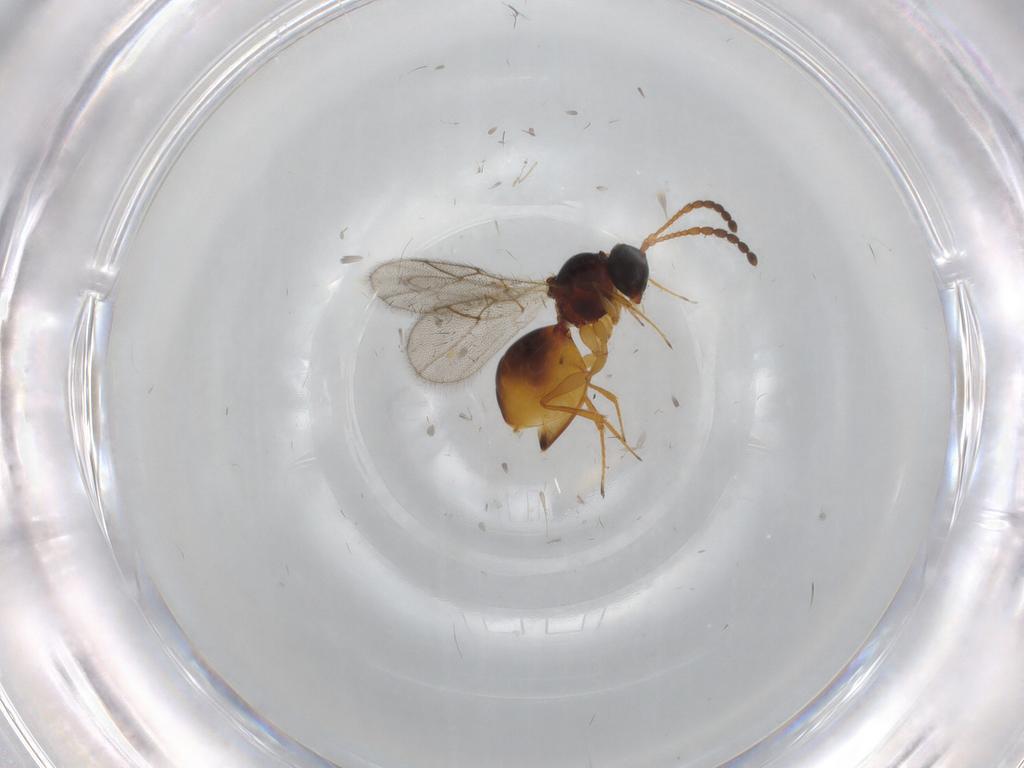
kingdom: Animalia
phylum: Arthropoda
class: Insecta
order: Hymenoptera
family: Figitidae
